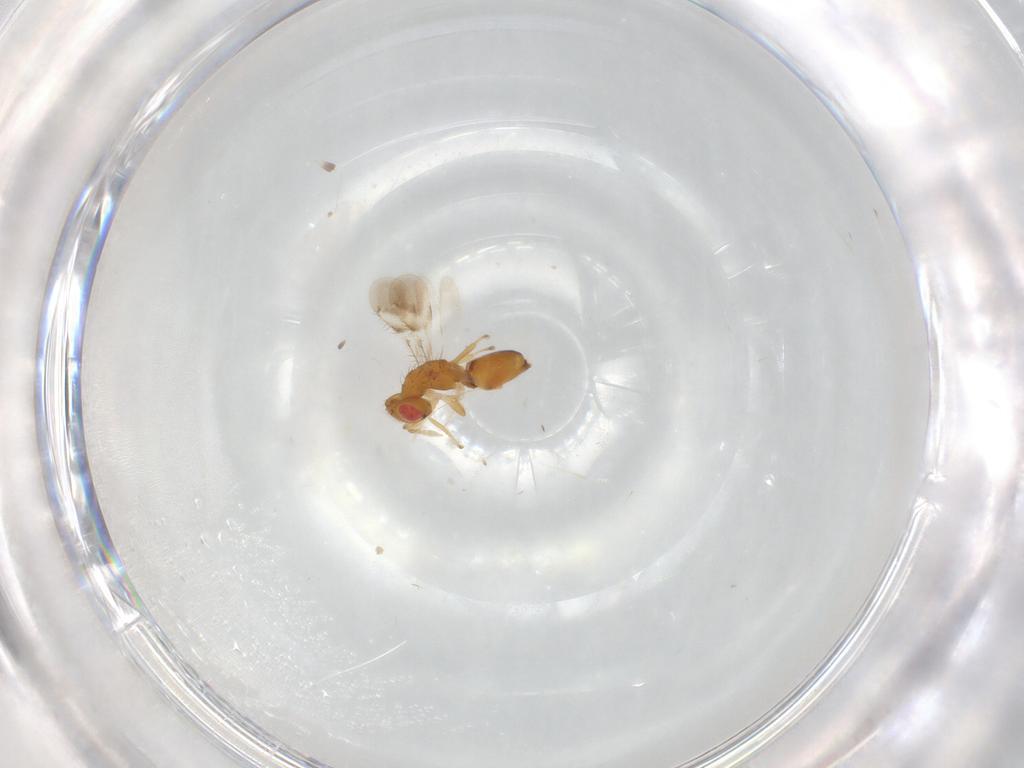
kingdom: Animalia
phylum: Arthropoda
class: Insecta
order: Hymenoptera
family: Eulophidae
